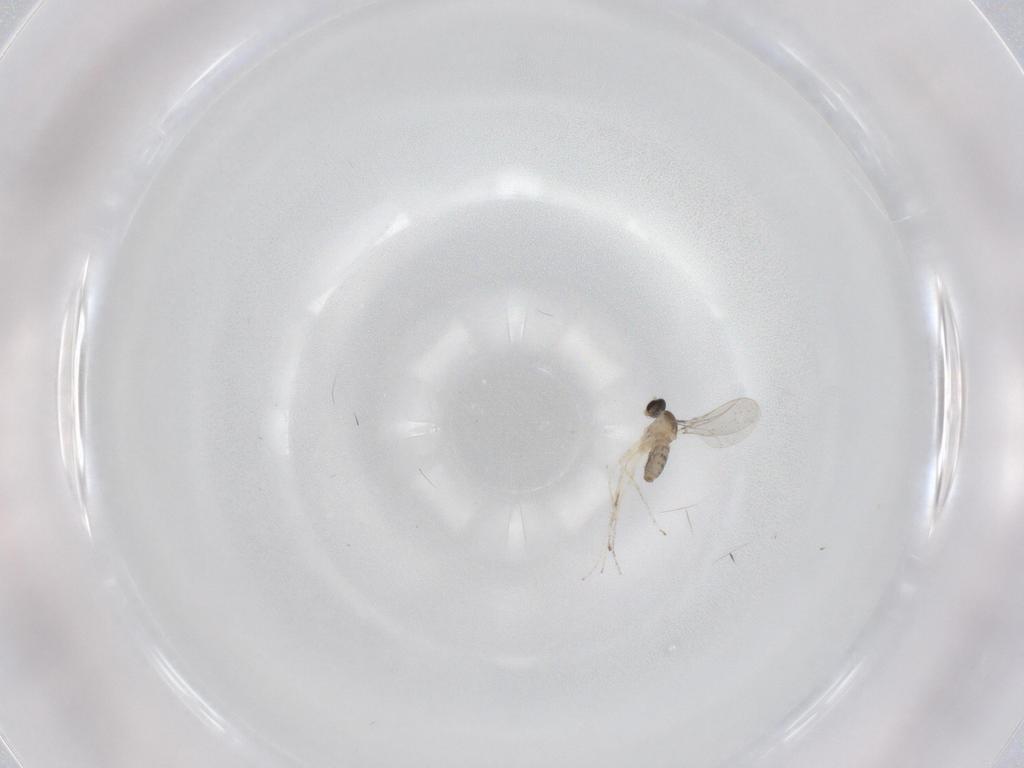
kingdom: Animalia
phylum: Arthropoda
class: Insecta
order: Diptera
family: Cecidomyiidae
